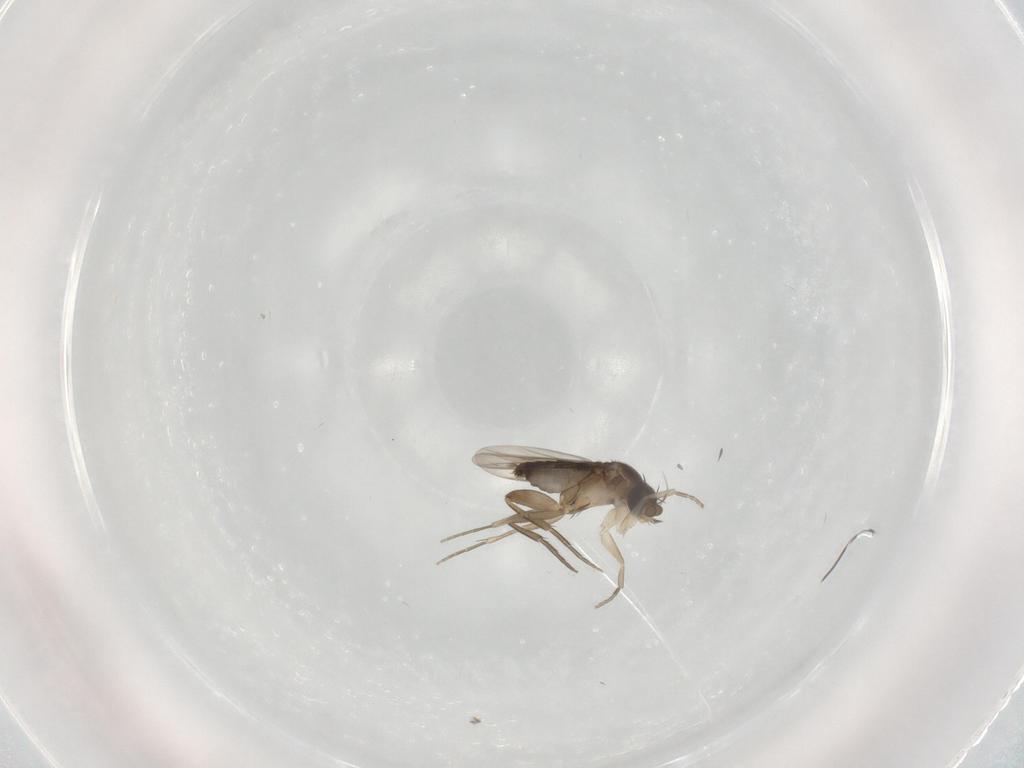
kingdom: Animalia
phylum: Arthropoda
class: Insecta
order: Diptera
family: Phoridae
